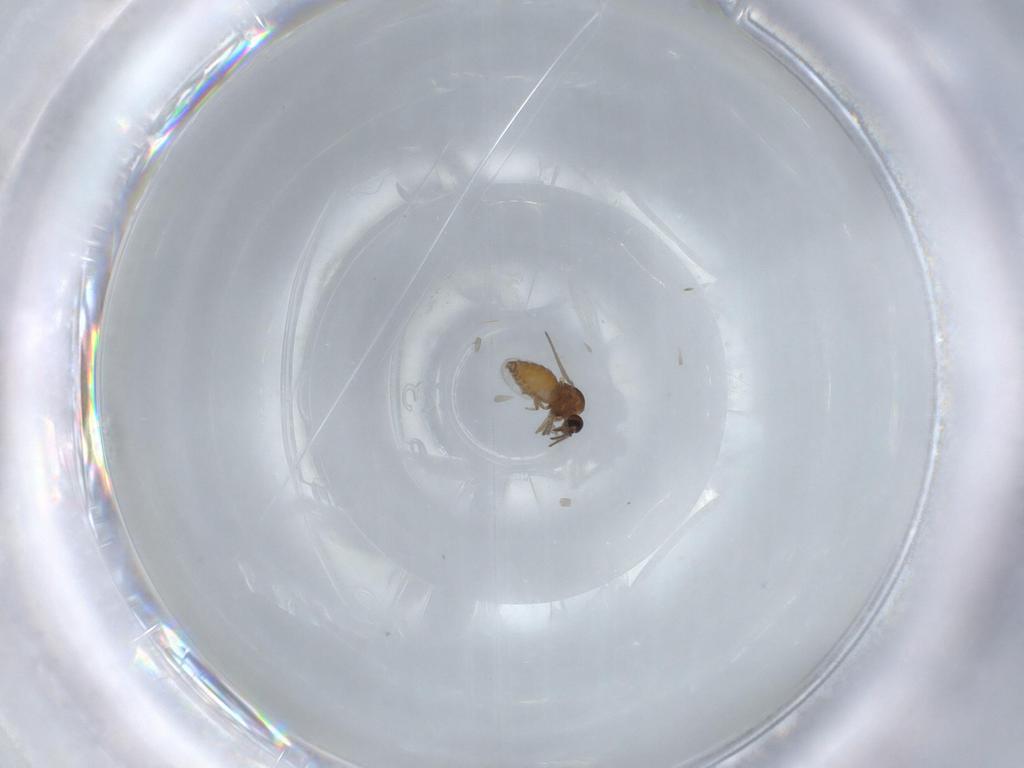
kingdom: Animalia
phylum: Arthropoda
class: Insecta
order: Diptera
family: Ceratopogonidae
